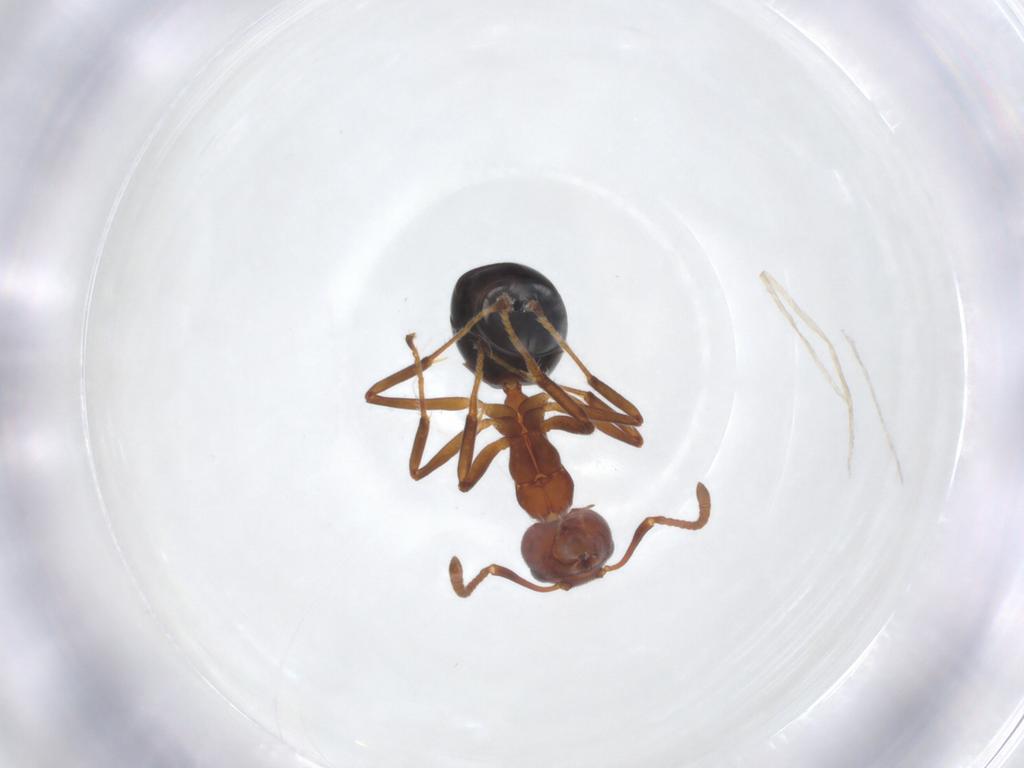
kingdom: Animalia
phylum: Arthropoda
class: Insecta
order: Hymenoptera
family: Formicidae
